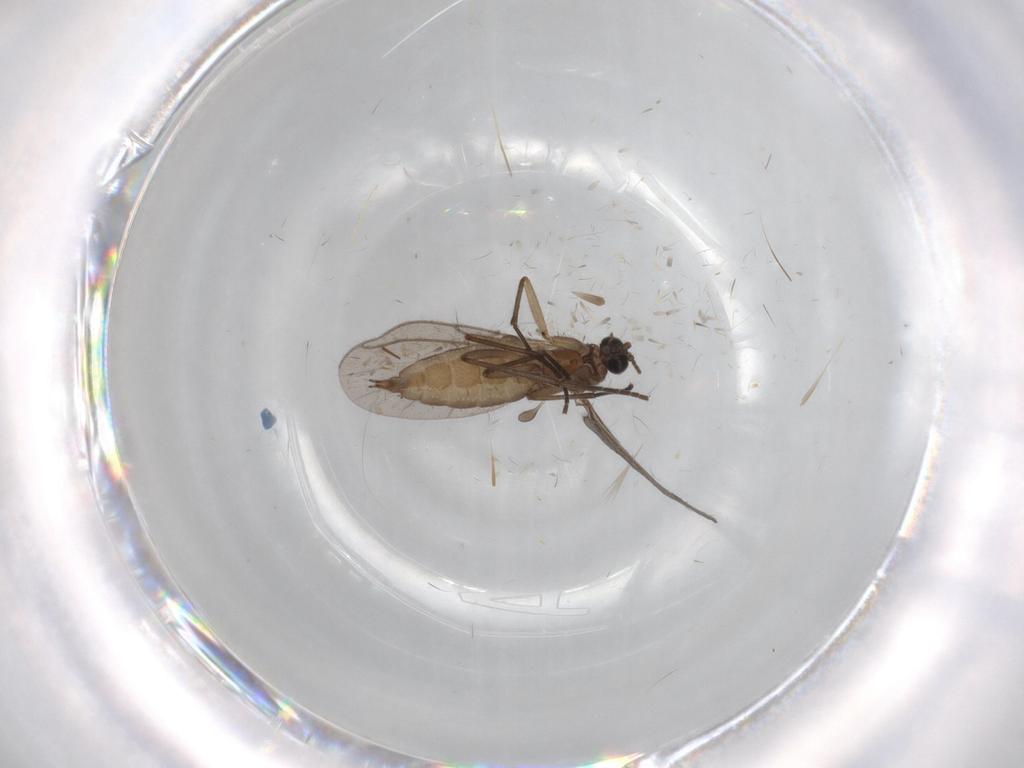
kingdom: Animalia
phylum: Arthropoda
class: Insecta
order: Diptera
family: Sciaridae
